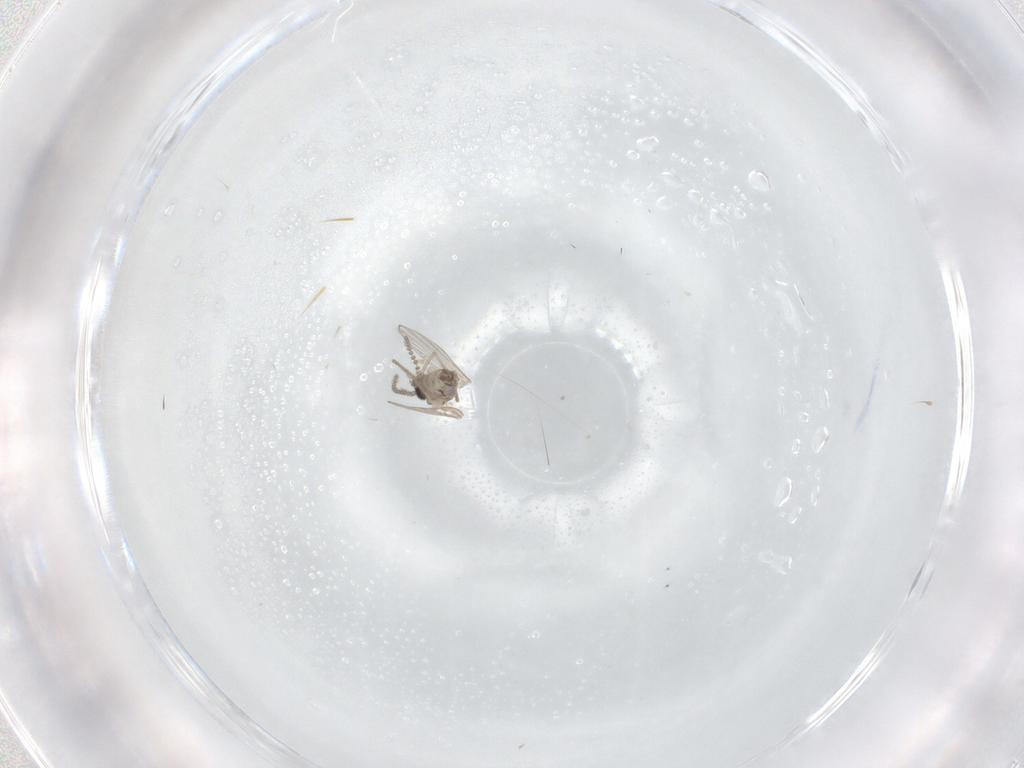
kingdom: Animalia
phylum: Arthropoda
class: Insecta
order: Diptera
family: Psychodidae
